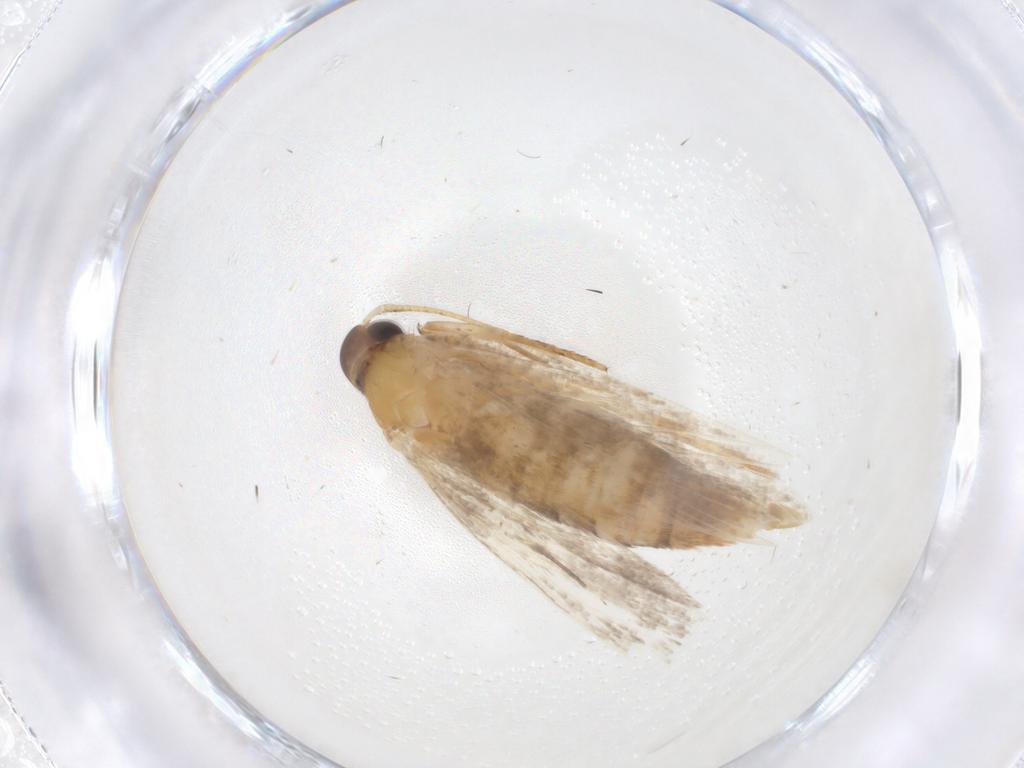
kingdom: Animalia
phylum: Arthropoda
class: Insecta
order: Lepidoptera
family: Oecophoridae
